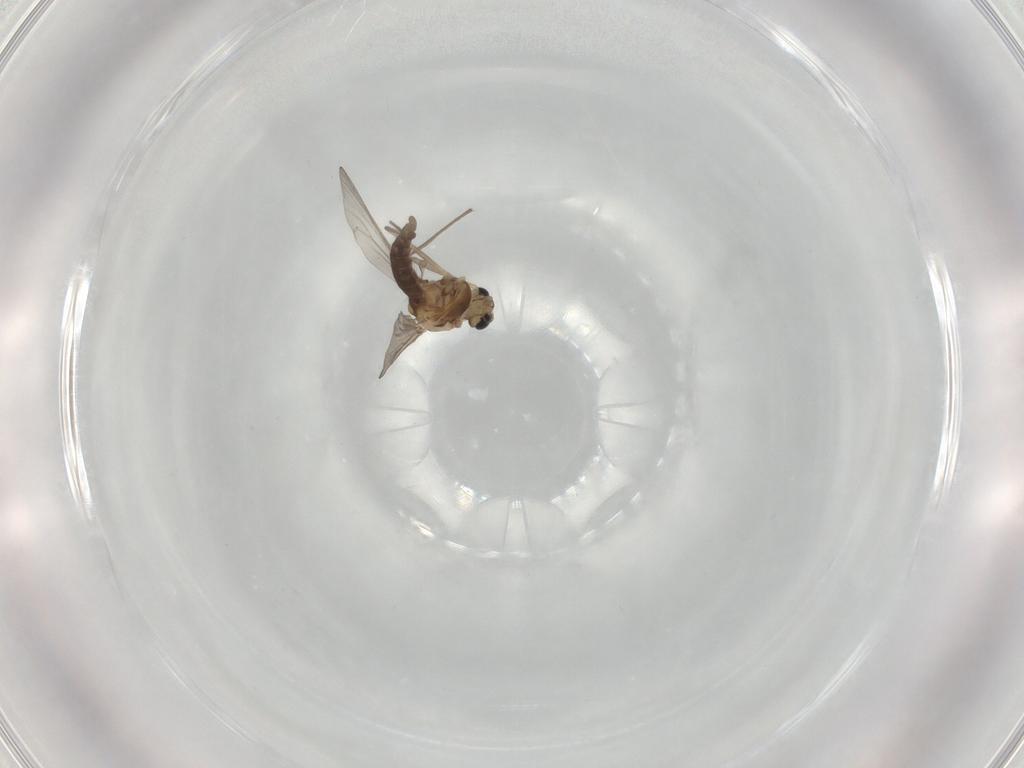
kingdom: Animalia
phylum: Arthropoda
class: Insecta
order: Diptera
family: Chironomidae
